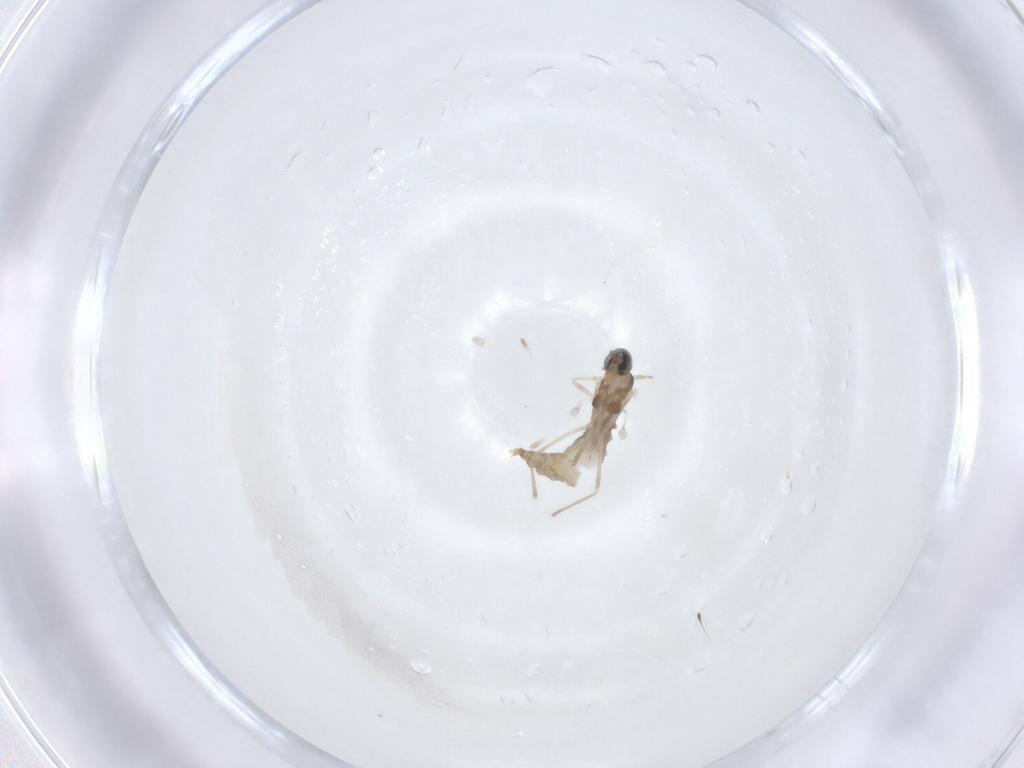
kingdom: Animalia
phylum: Arthropoda
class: Insecta
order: Diptera
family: Cecidomyiidae
